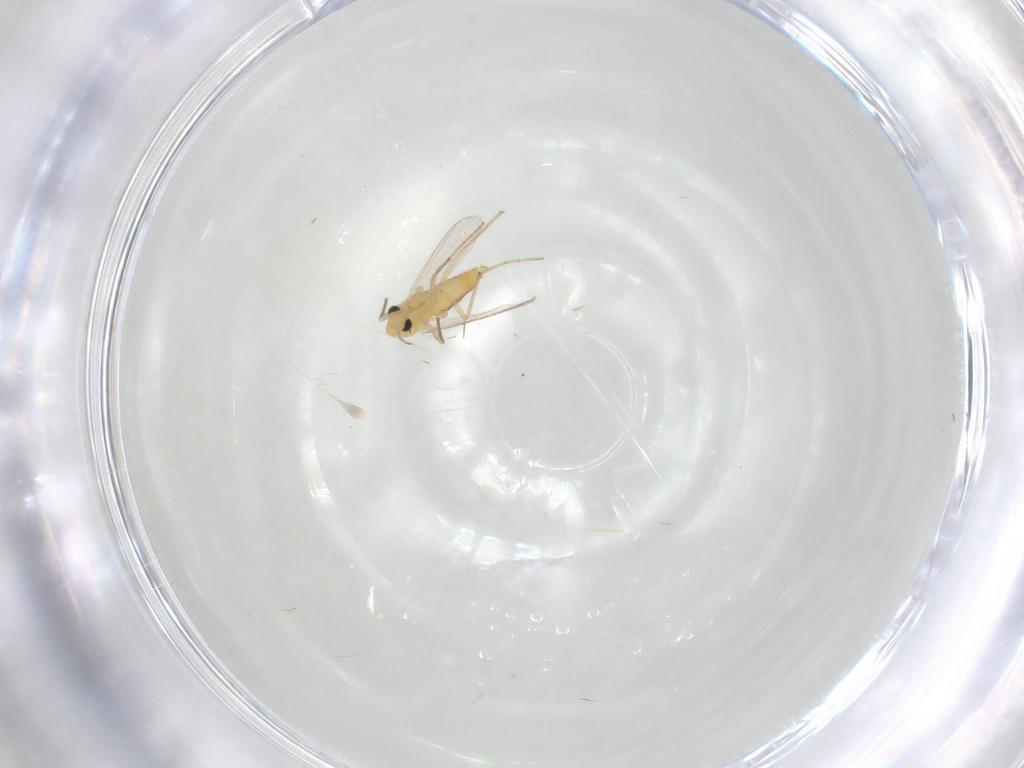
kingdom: Animalia
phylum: Arthropoda
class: Insecta
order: Diptera
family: Chironomidae
